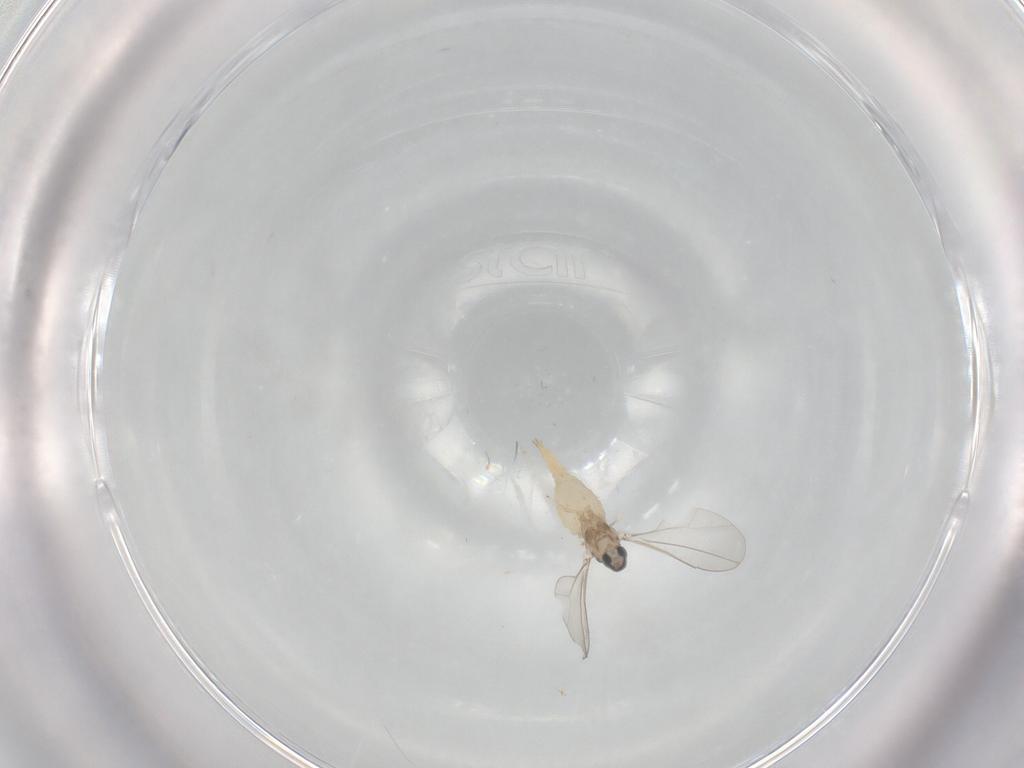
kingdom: Animalia
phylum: Arthropoda
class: Insecta
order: Diptera
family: Cecidomyiidae
